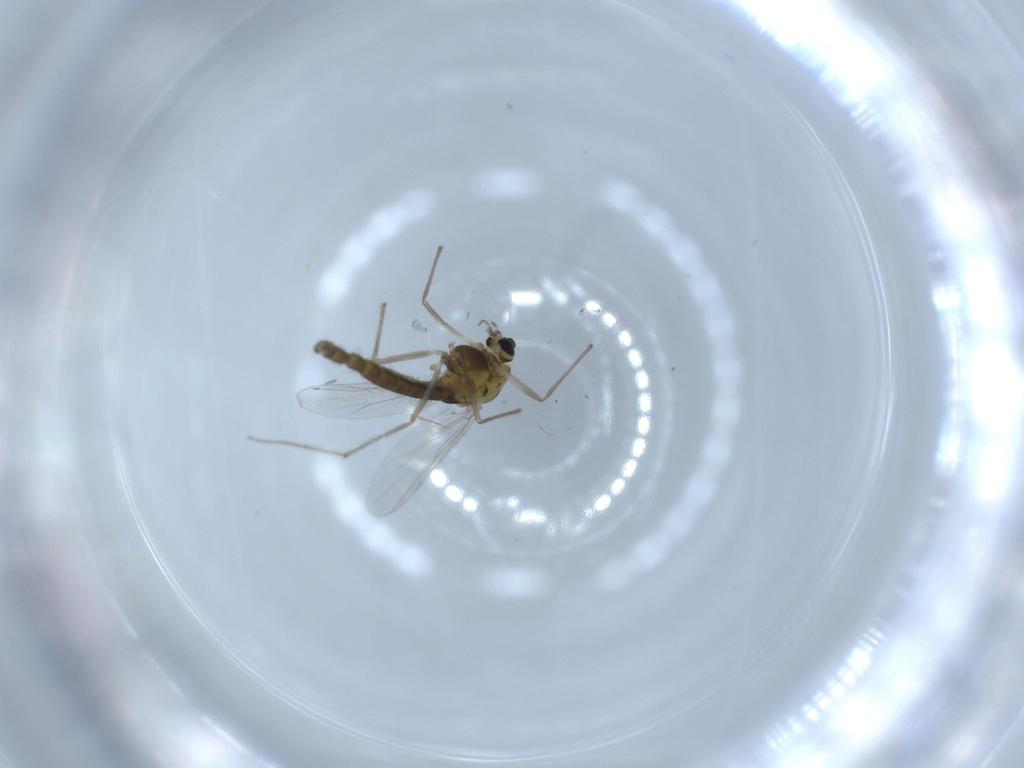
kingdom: Animalia
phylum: Arthropoda
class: Insecta
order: Diptera
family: Chironomidae
